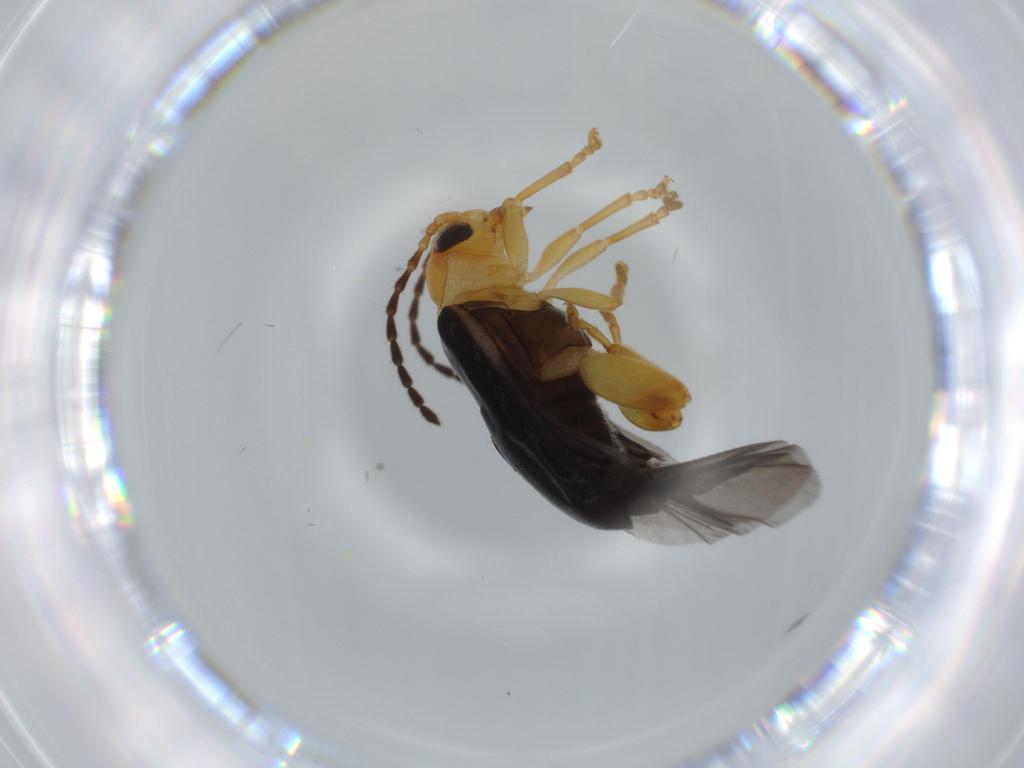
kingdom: Animalia
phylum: Arthropoda
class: Insecta
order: Coleoptera
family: Chrysomelidae
